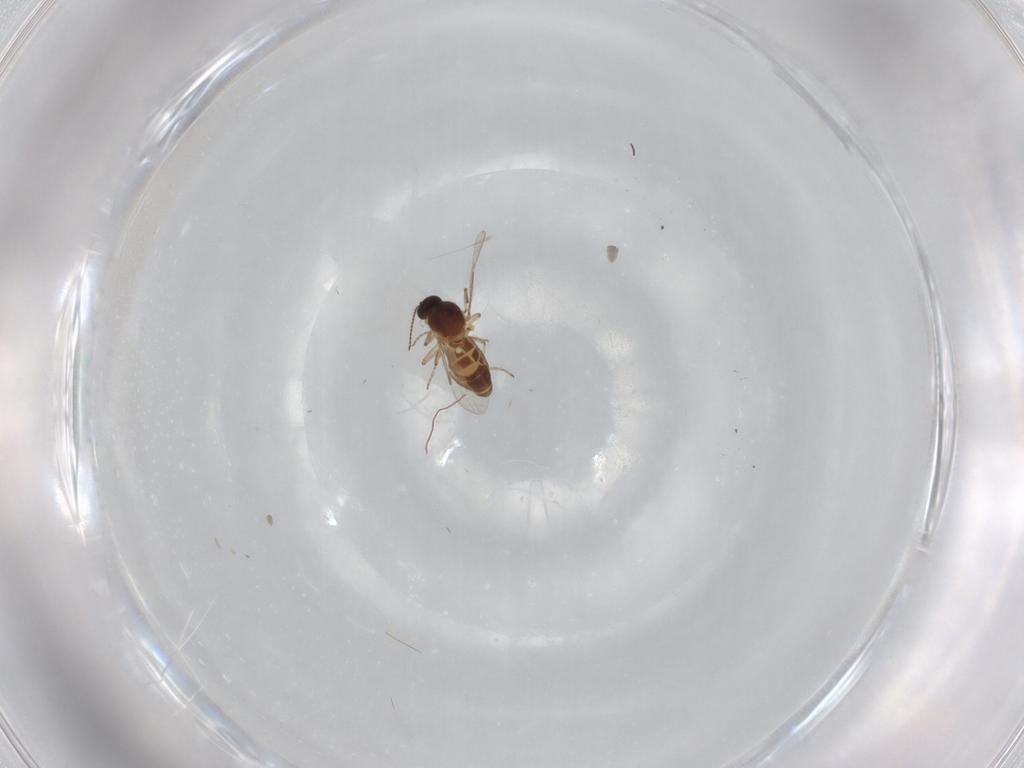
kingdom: Animalia
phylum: Arthropoda
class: Insecta
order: Diptera
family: Ceratopogonidae
